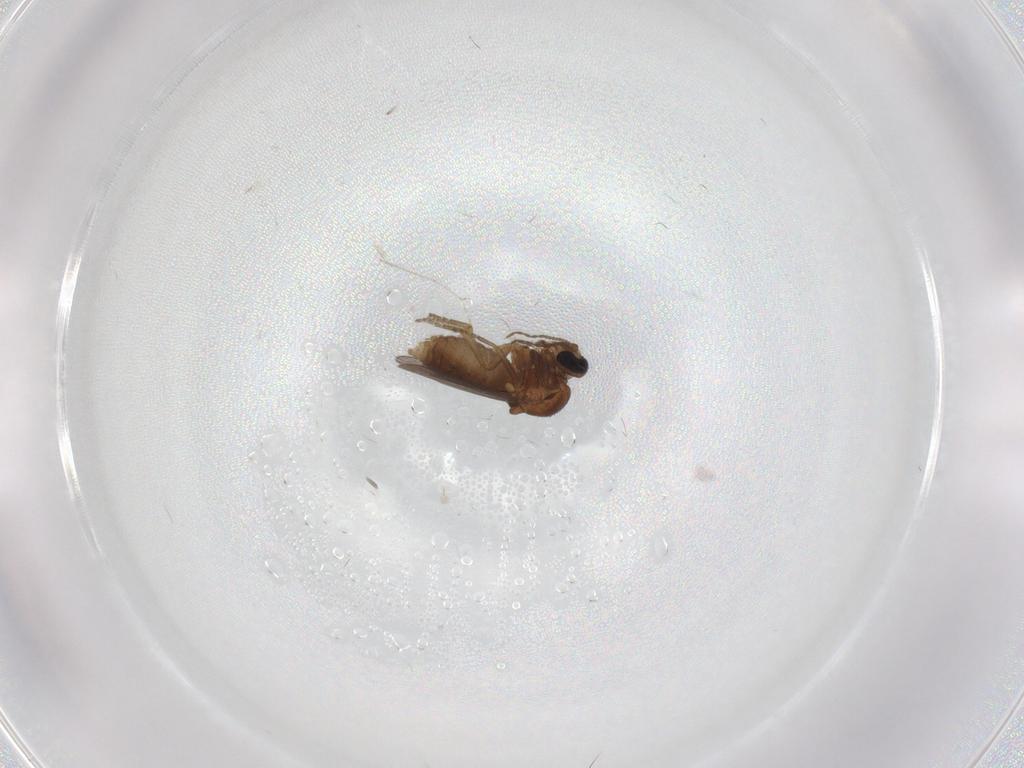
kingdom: Animalia
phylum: Arthropoda
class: Insecta
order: Diptera
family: Ceratopogonidae
